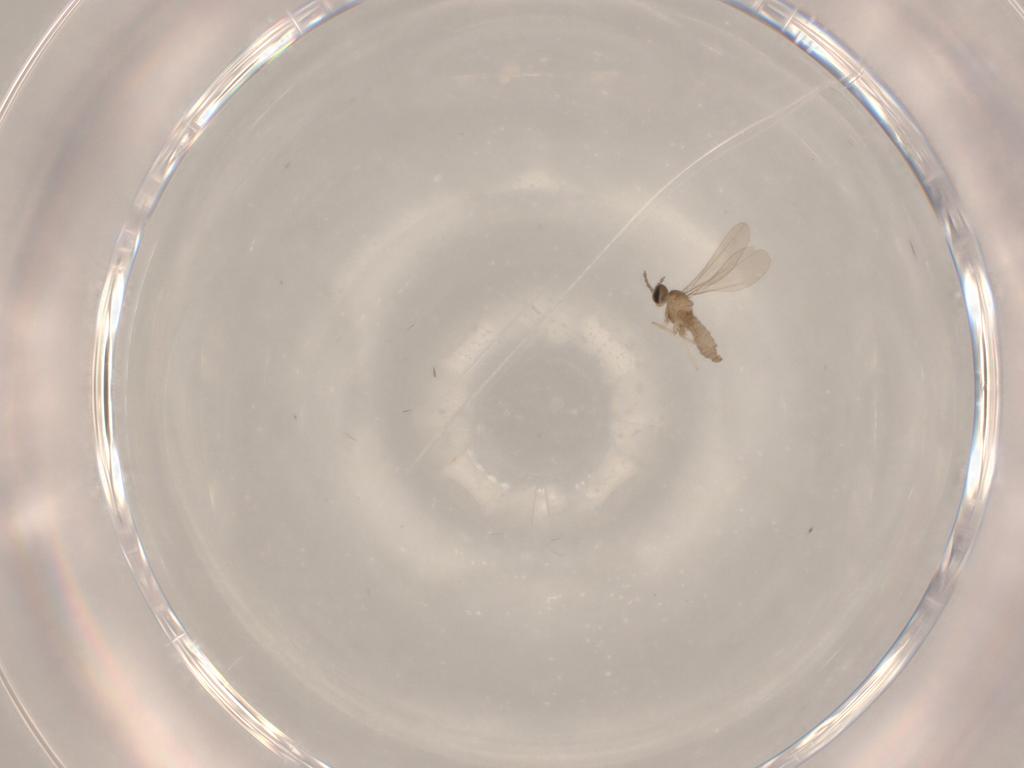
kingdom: Animalia
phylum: Arthropoda
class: Insecta
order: Diptera
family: Cecidomyiidae
